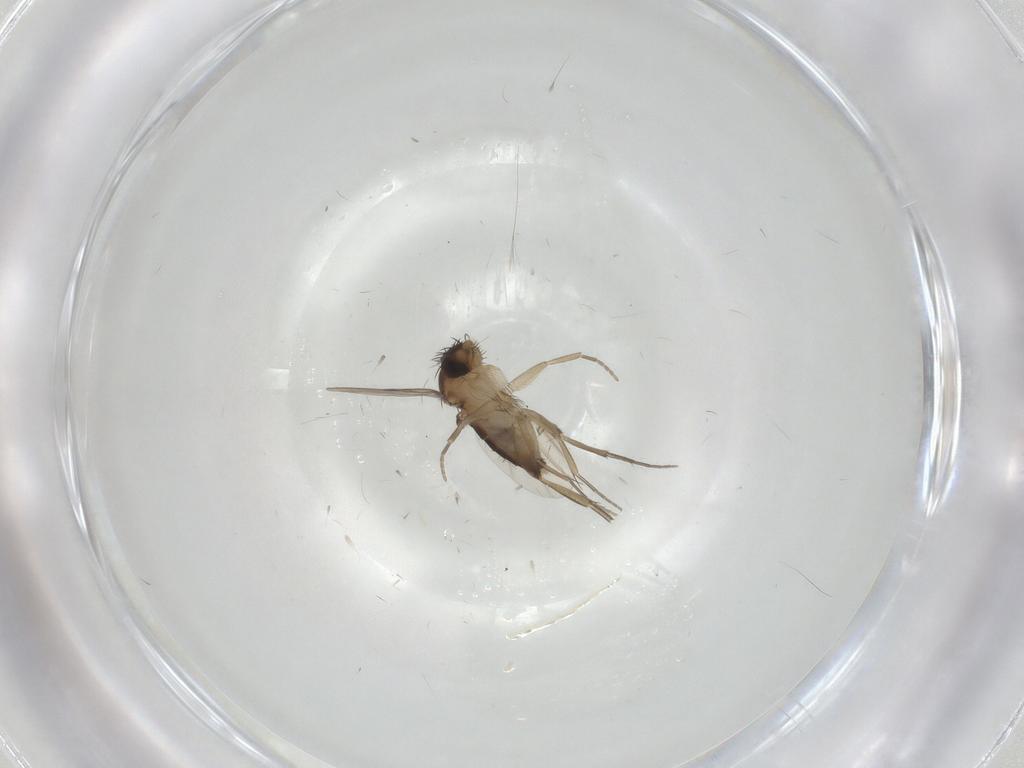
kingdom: Animalia
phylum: Arthropoda
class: Insecta
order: Diptera
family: Phoridae
